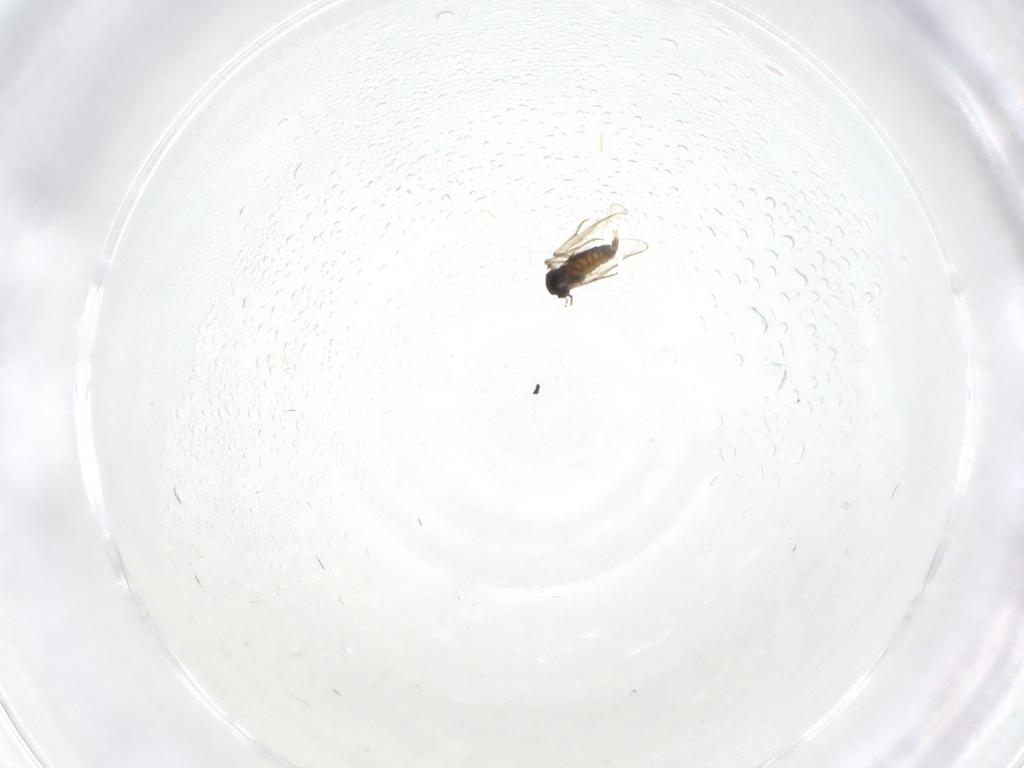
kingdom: Animalia
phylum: Arthropoda
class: Insecta
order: Diptera
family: Chironomidae
